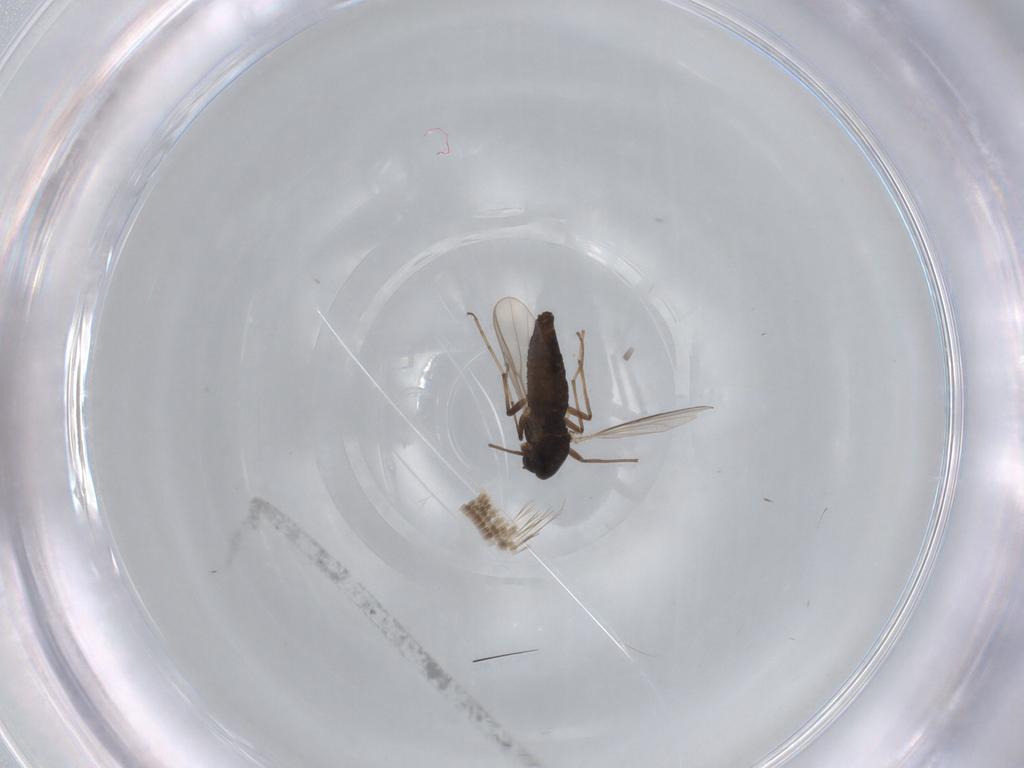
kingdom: Animalia
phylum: Arthropoda
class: Insecta
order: Diptera
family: Chironomidae
